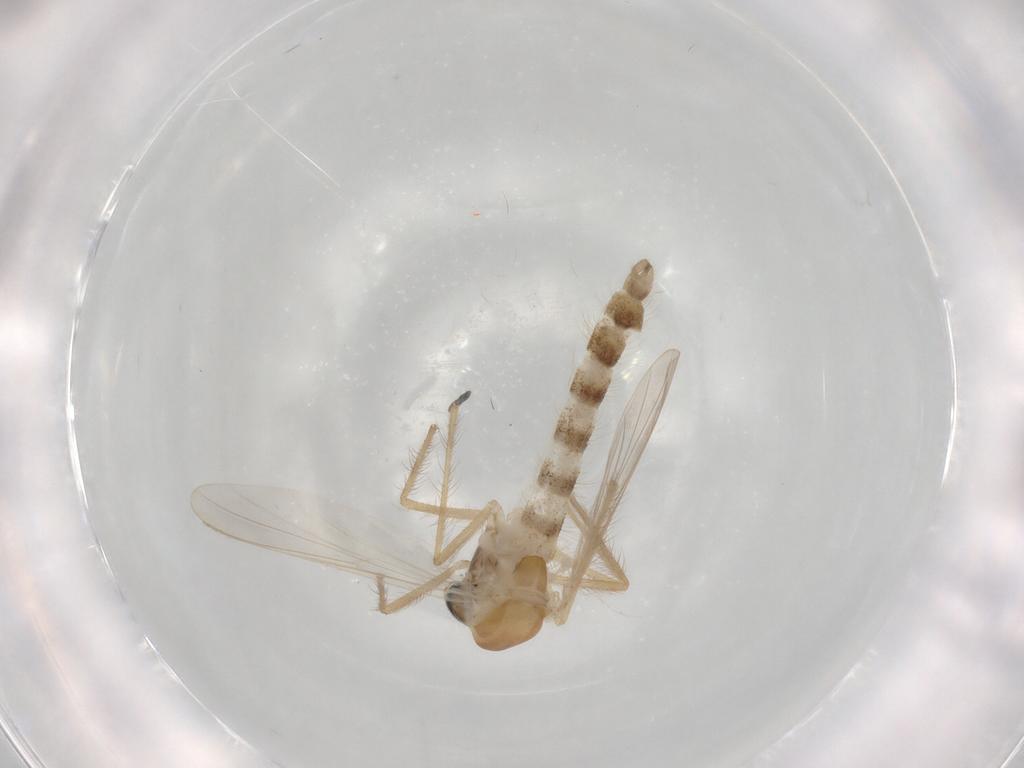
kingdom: Animalia
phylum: Arthropoda
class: Insecta
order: Diptera
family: Chironomidae
